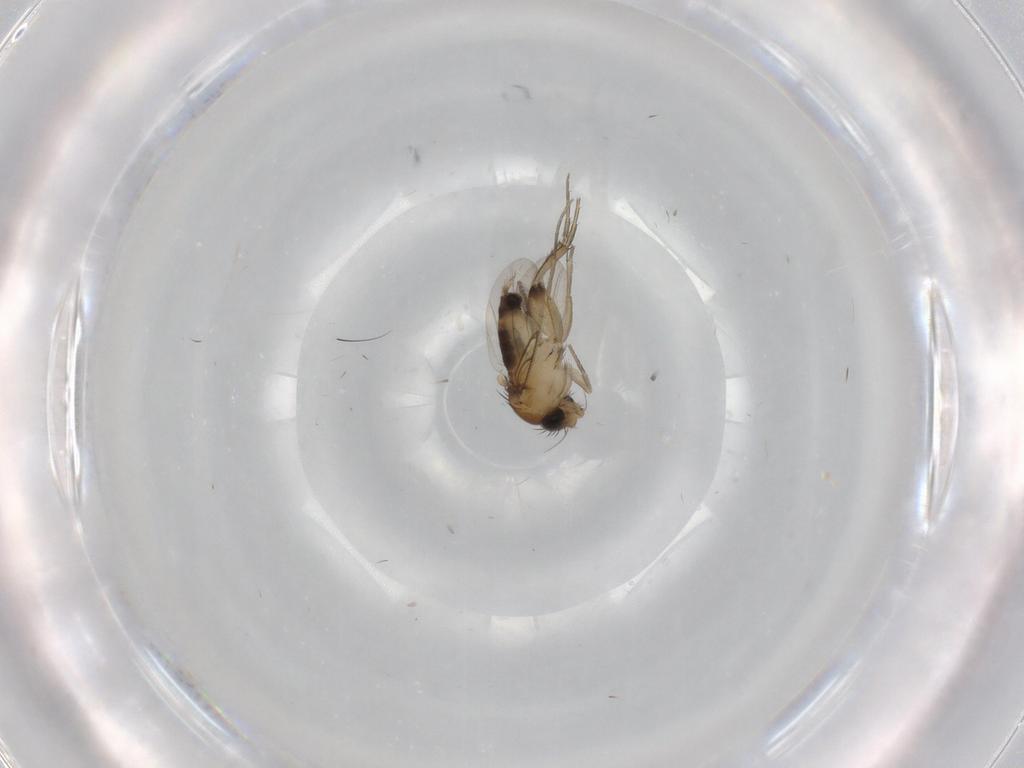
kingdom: Animalia
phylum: Arthropoda
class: Insecta
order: Diptera
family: Phoridae
